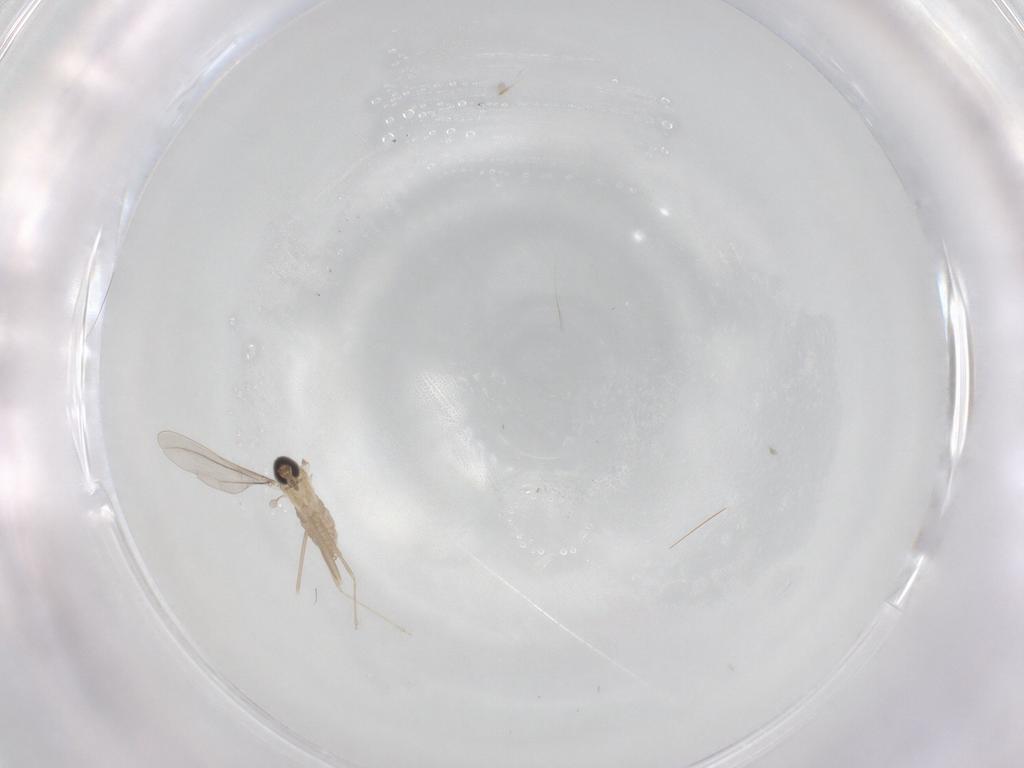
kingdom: Animalia
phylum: Arthropoda
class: Insecta
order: Diptera
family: Cecidomyiidae
